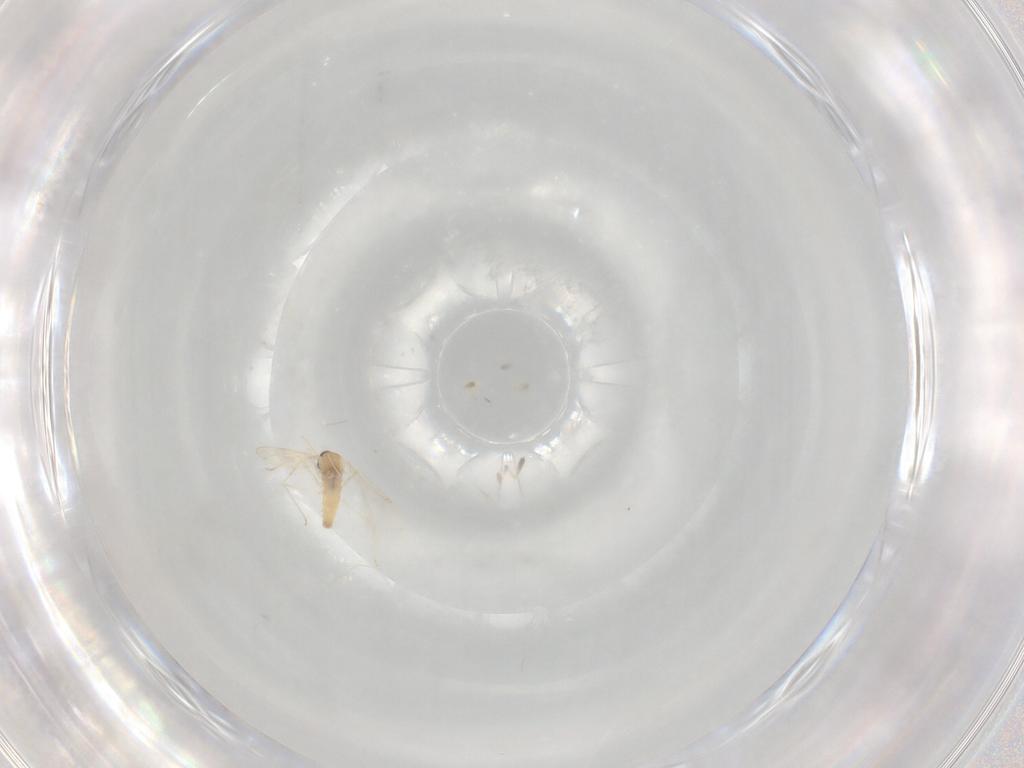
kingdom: Animalia
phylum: Arthropoda
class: Insecta
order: Diptera
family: Cecidomyiidae
